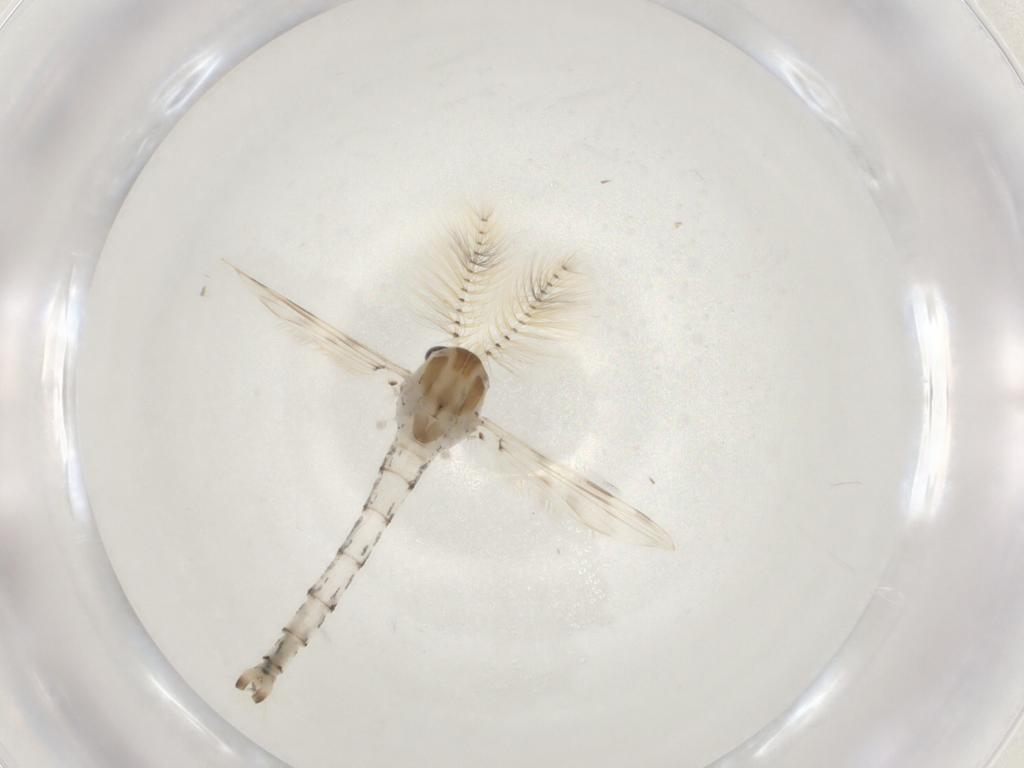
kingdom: Animalia
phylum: Arthropoda
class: Insecta
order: Diptera
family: Chaoboridae
